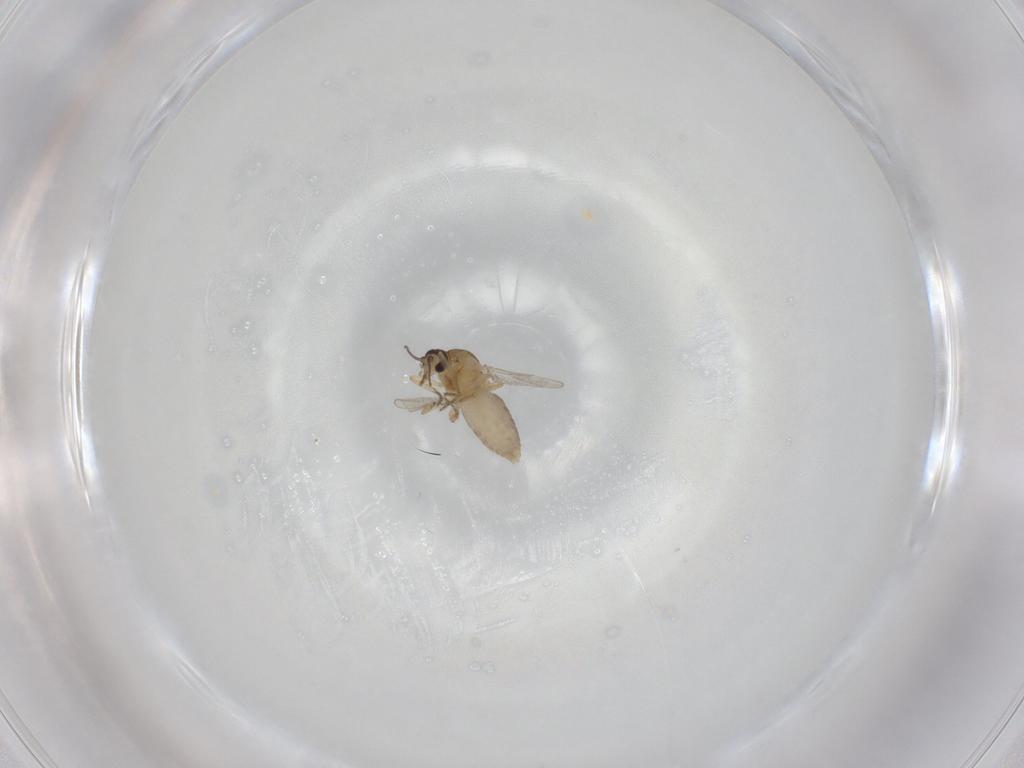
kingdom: Animalia
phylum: Arthropoda
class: Insecta
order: Diptera
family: Ceratopogonidae
